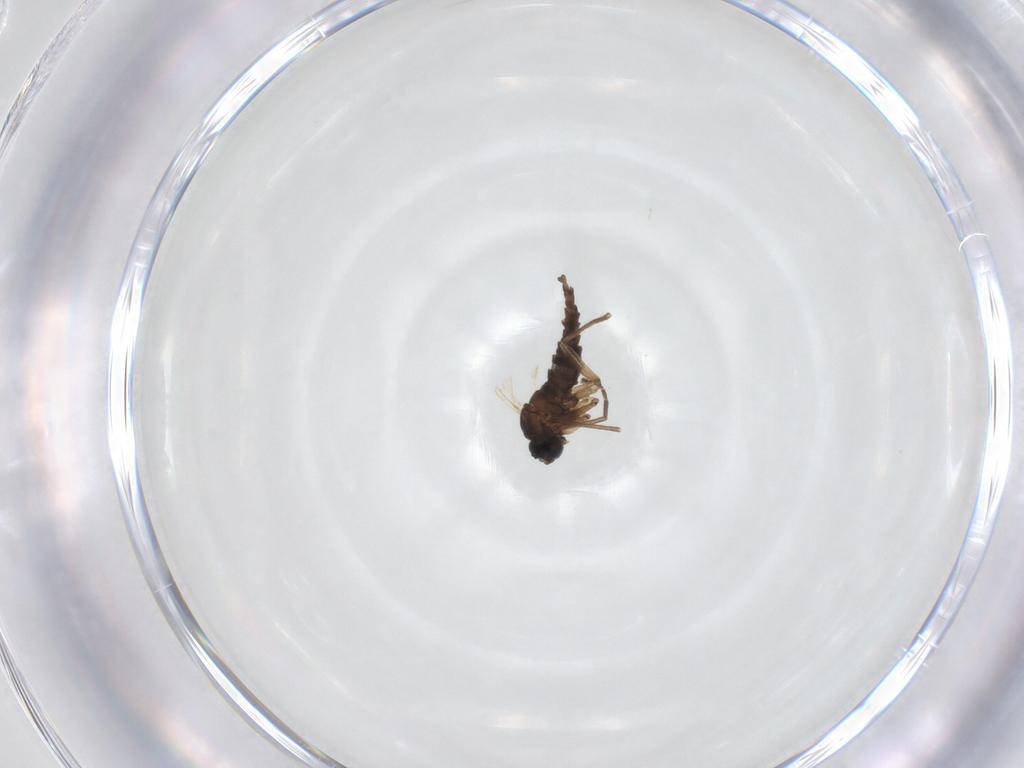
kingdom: Animalia
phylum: Arthropoda
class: Insecta
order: Diptera
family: Sciaridae
